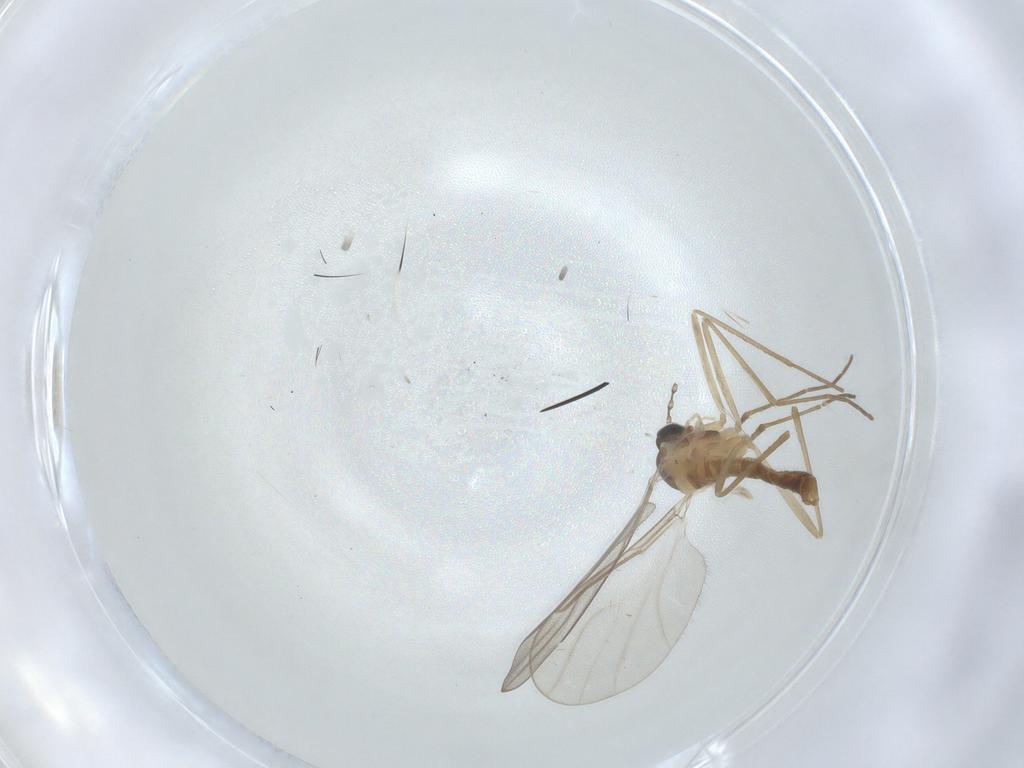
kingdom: Animalia
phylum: Arthropoda
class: Insecta
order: Diptera
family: Cecidomyiidae
